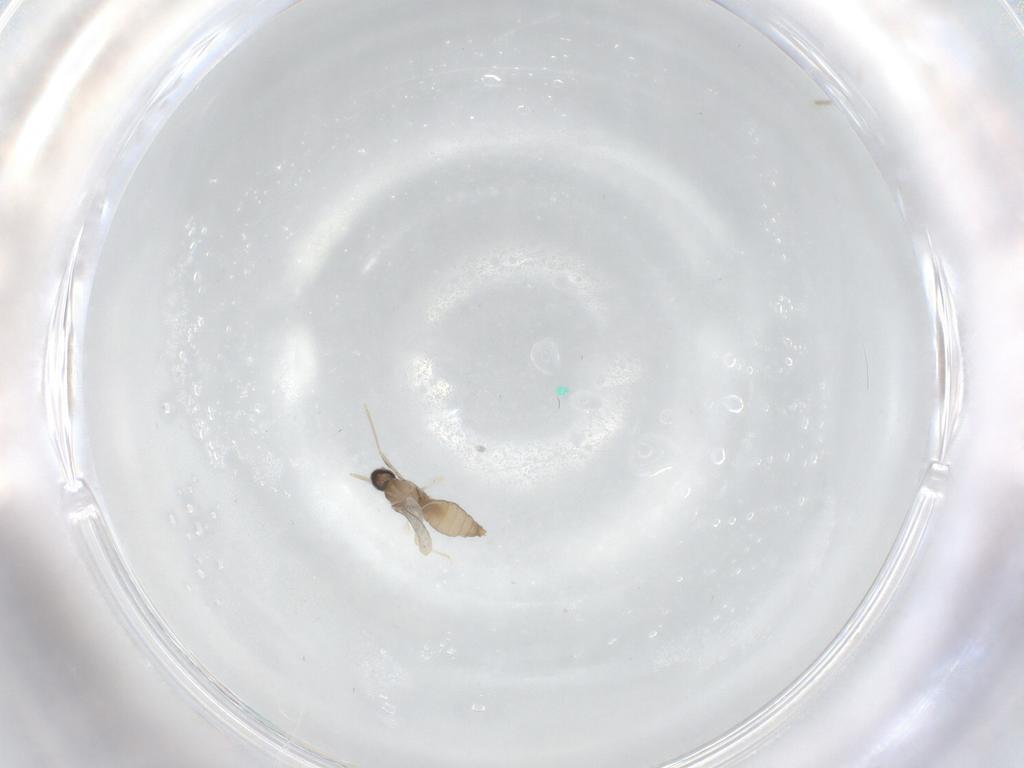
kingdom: Animalia
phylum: Arthropoda
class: Insecta
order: Diptera
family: Cecidomyiidae
